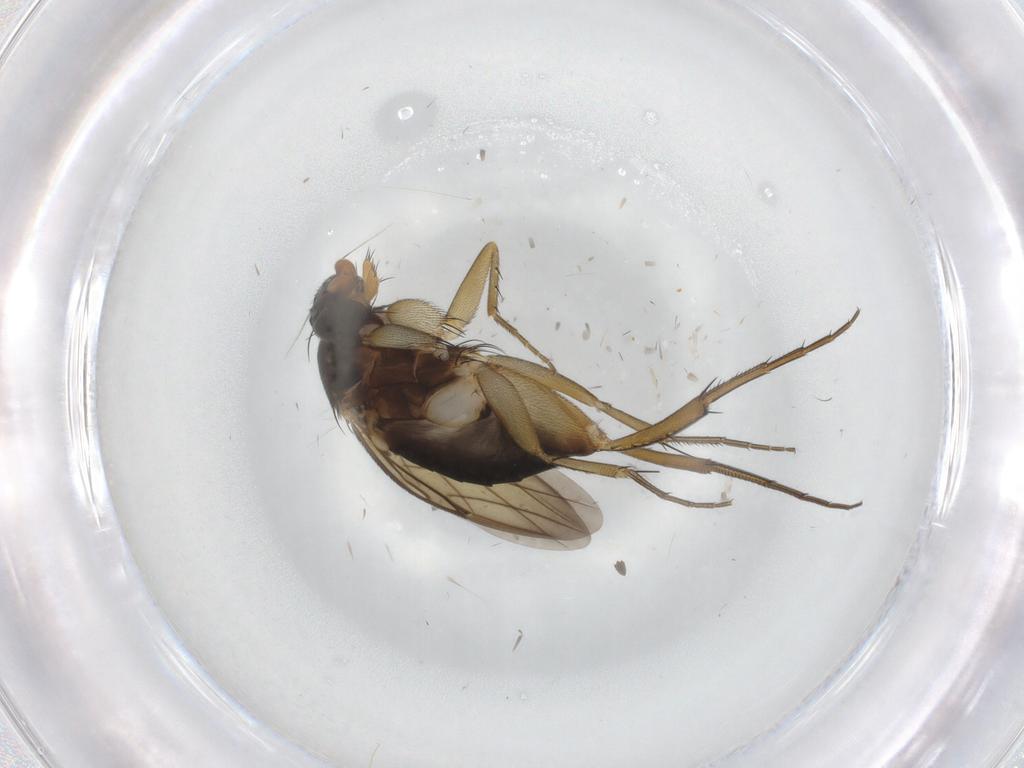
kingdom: Animalia
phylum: Arthropoda
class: Insecta
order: Diptera
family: Phoridae
